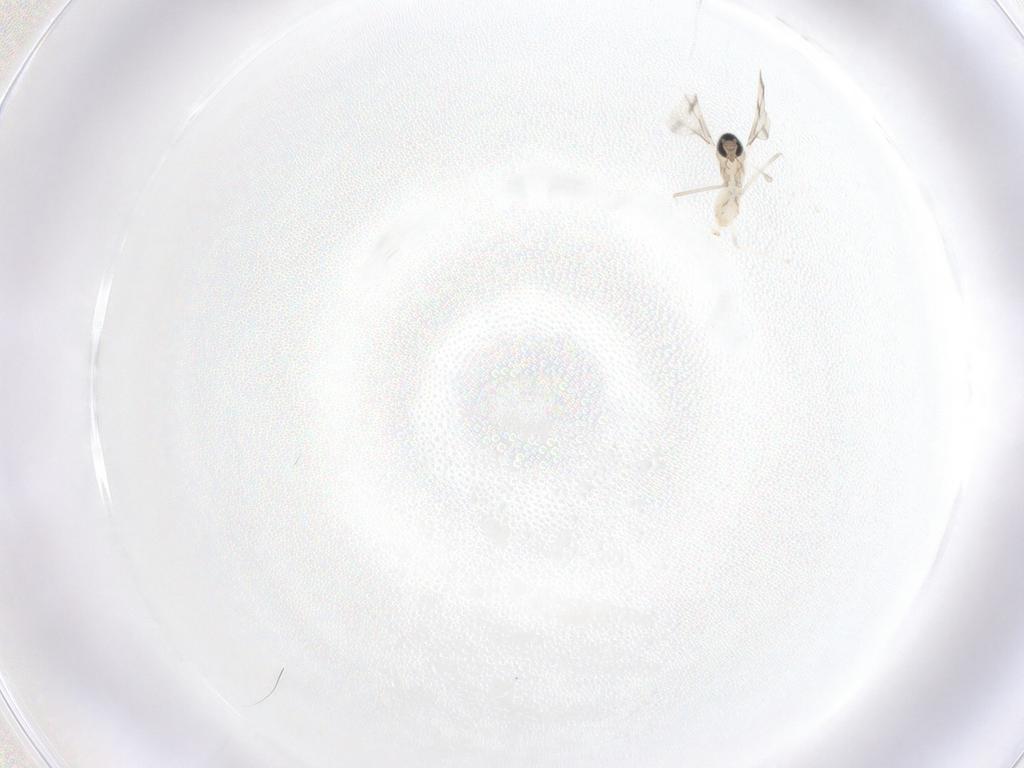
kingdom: Animalia
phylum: Arthropoda
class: Insecta
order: Diptera
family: Cecidomyiidae
